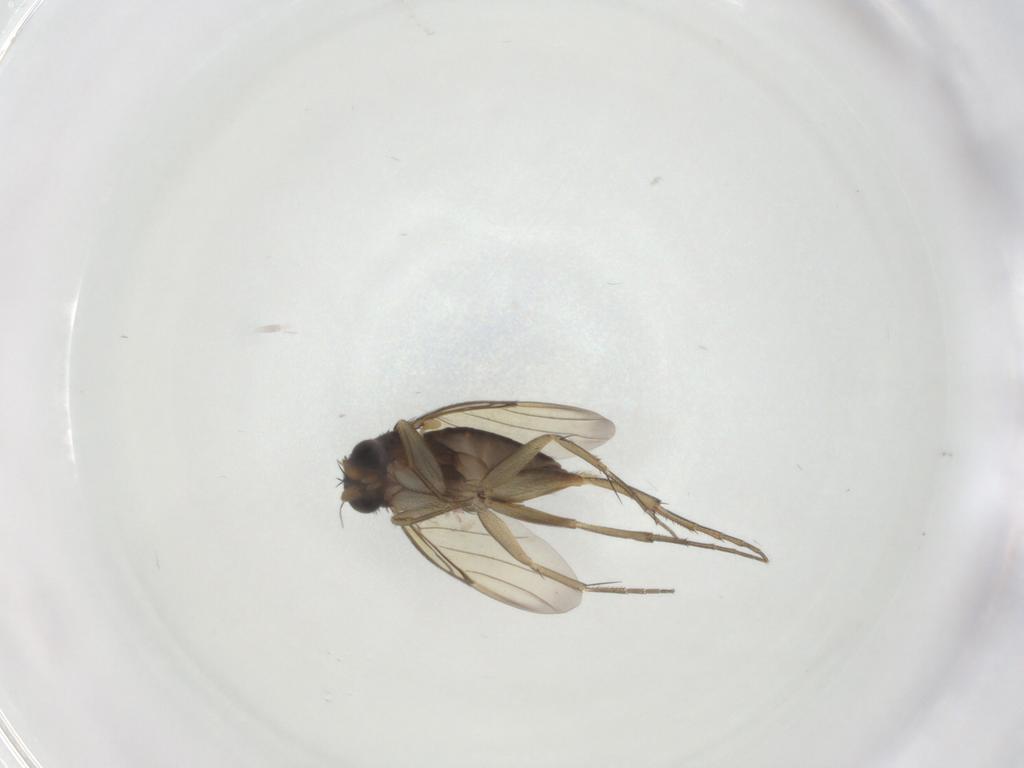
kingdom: Animalia
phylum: Arthropoda
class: Insecta
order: Diptera
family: Phoridae
